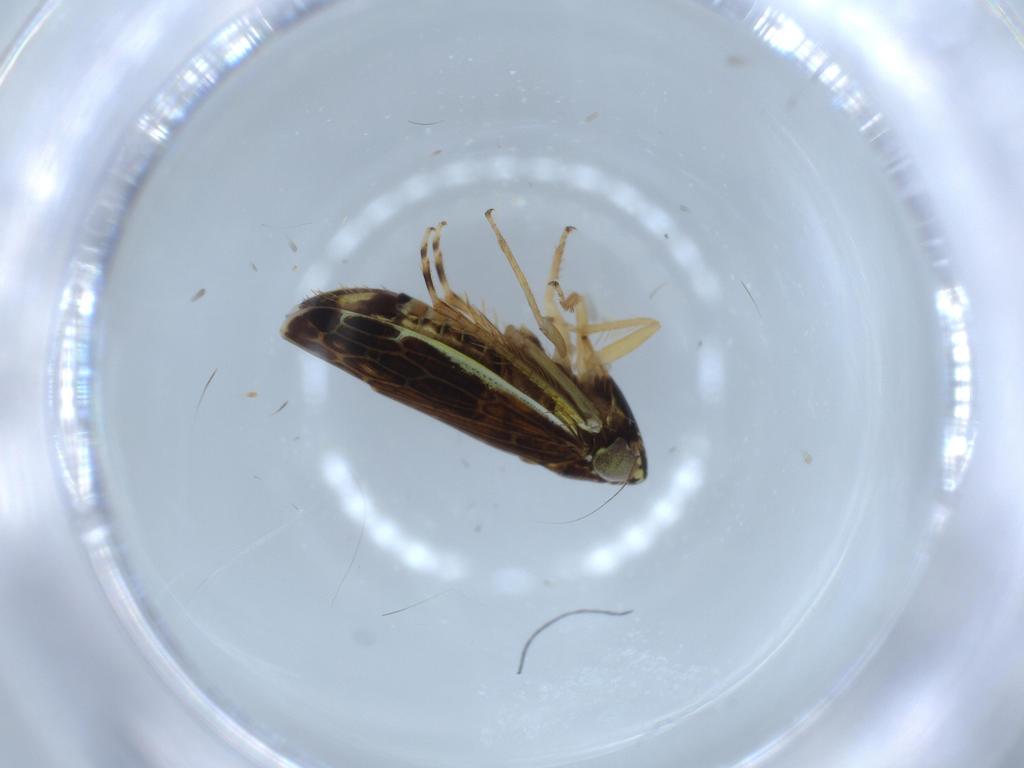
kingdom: Animalia
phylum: Arthropoda
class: Insecta
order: Hemiptera
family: Cicadellidae
